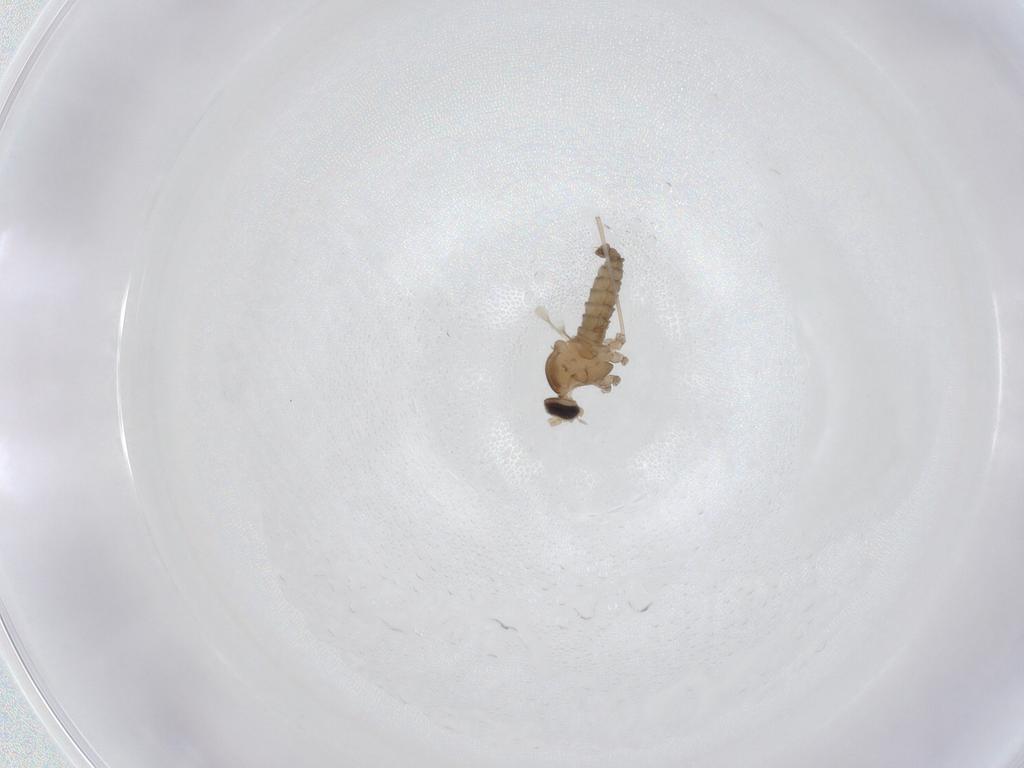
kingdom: Animalia
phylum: Arthropoda
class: Insecta
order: Diptera
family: Cecidomyiidae
